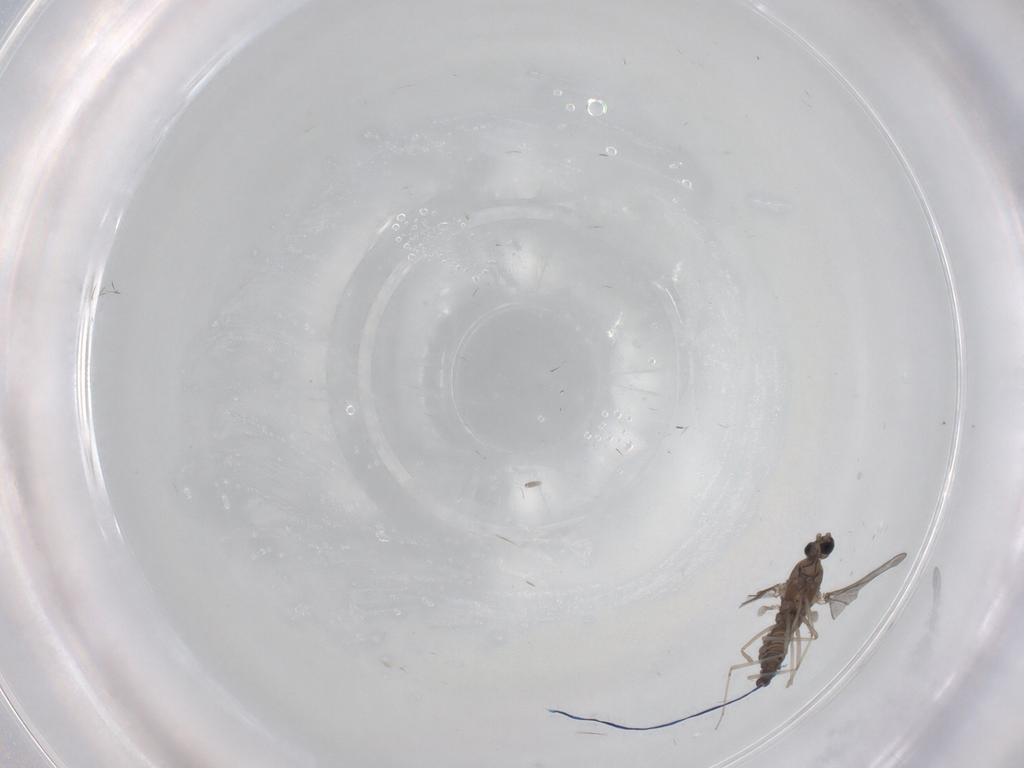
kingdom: Animalia
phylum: Arthropoda
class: Insecta
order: Diptera
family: Cecidomyiidae
